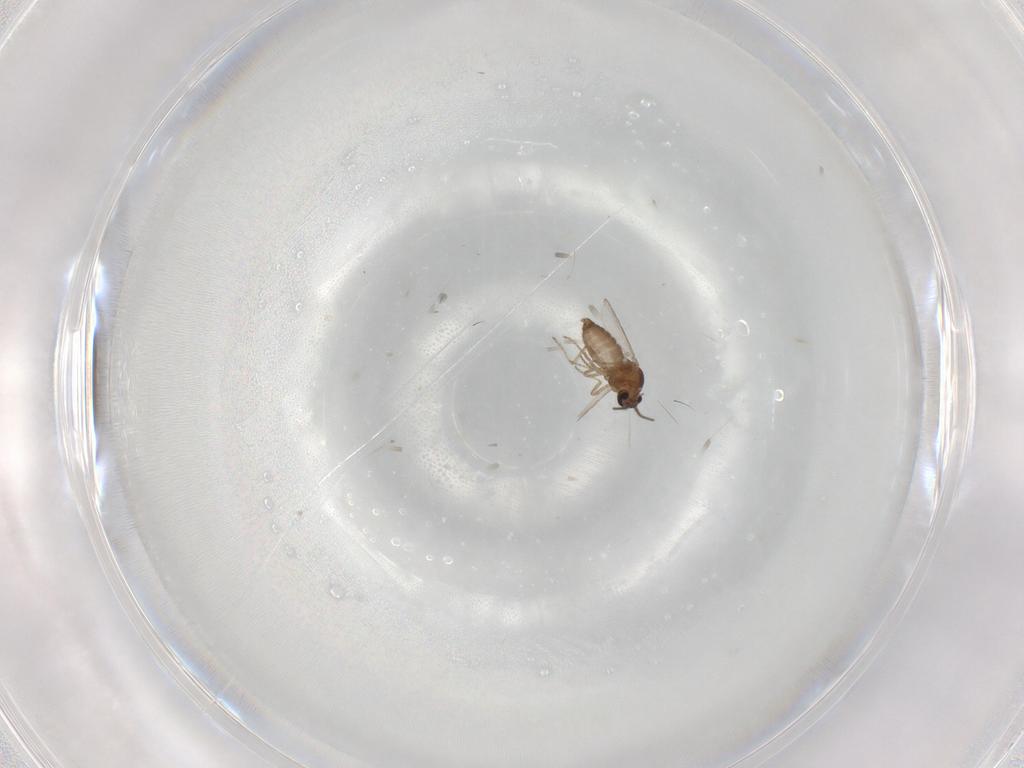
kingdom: Animalia
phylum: Arthropoda
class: Insecta
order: Diptera
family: Ceratopogonidae
